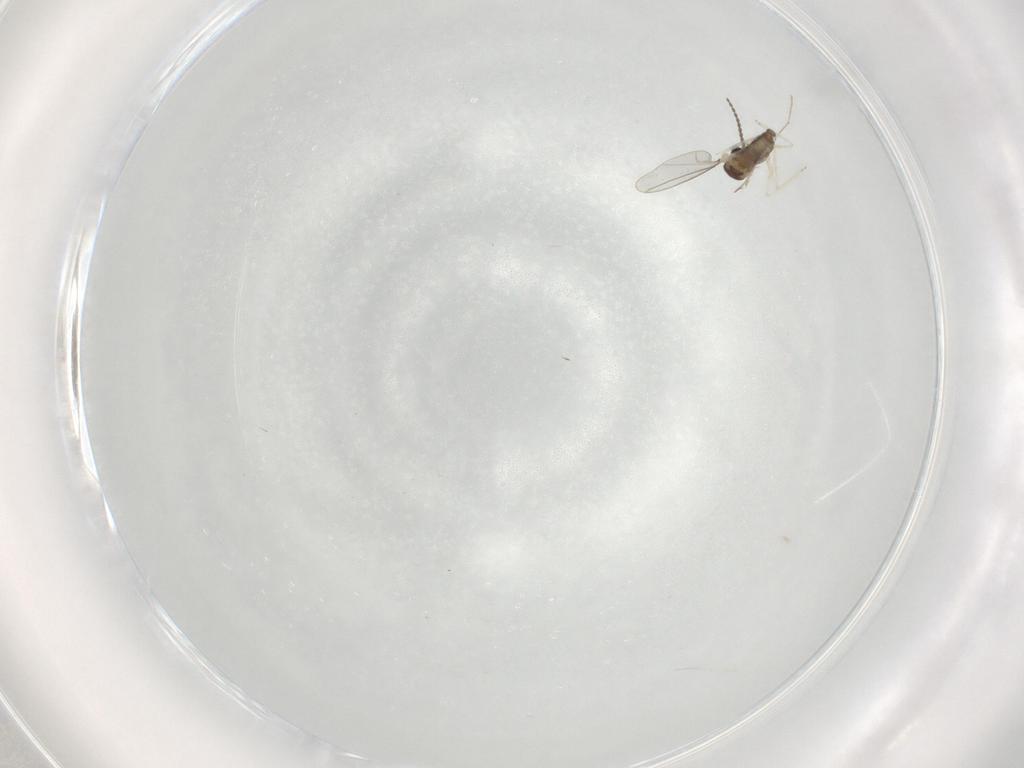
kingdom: Animalia
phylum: Arthropoda
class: Insecta
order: Diptera
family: Cecidomyiidae
